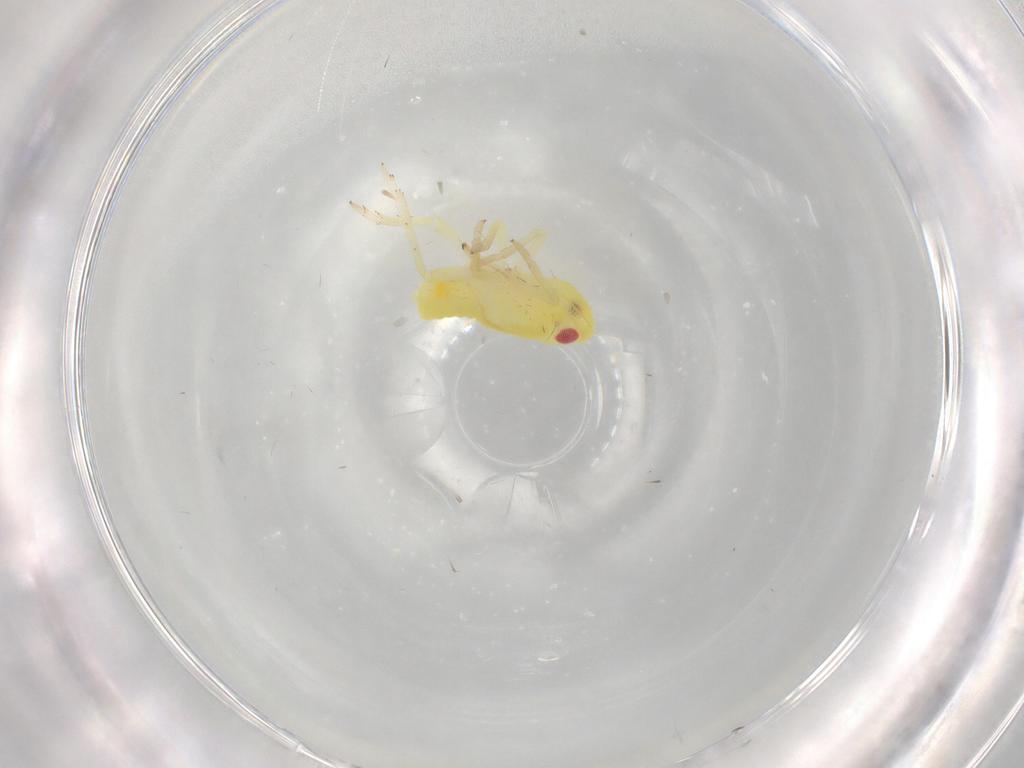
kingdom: Animalia
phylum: Arthropoda
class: Insecta
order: Hemiptera
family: Tropiduchidae
